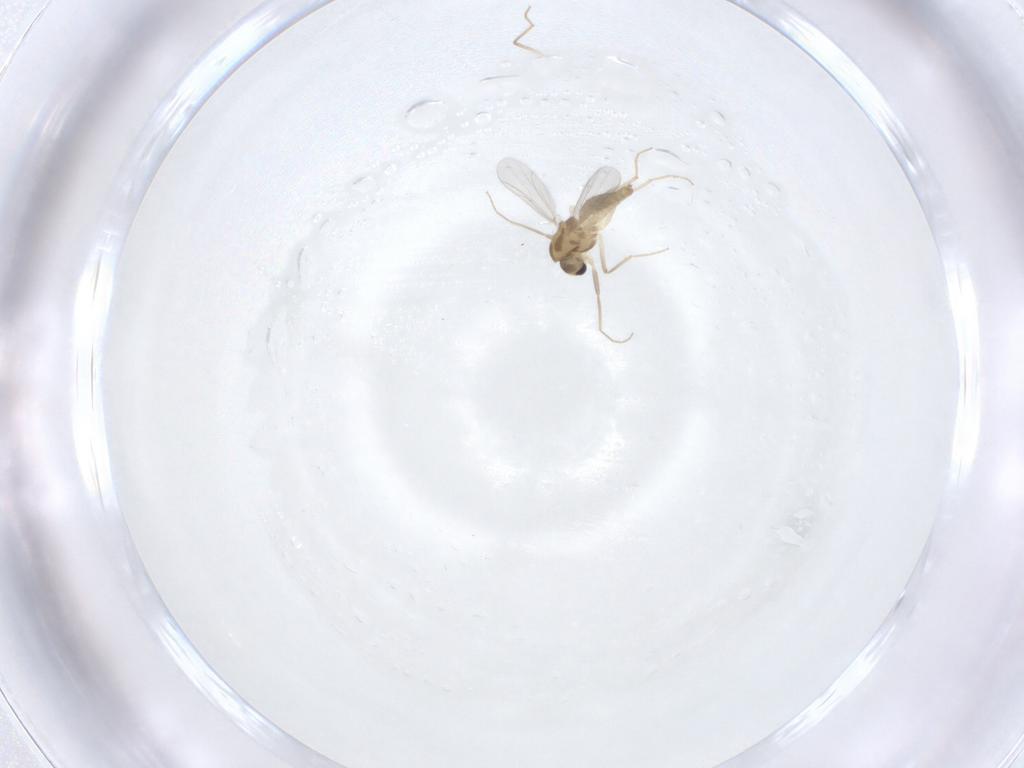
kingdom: Animalia
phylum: Arthropoda
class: Insecta
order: Diptera
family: Chironomidae
